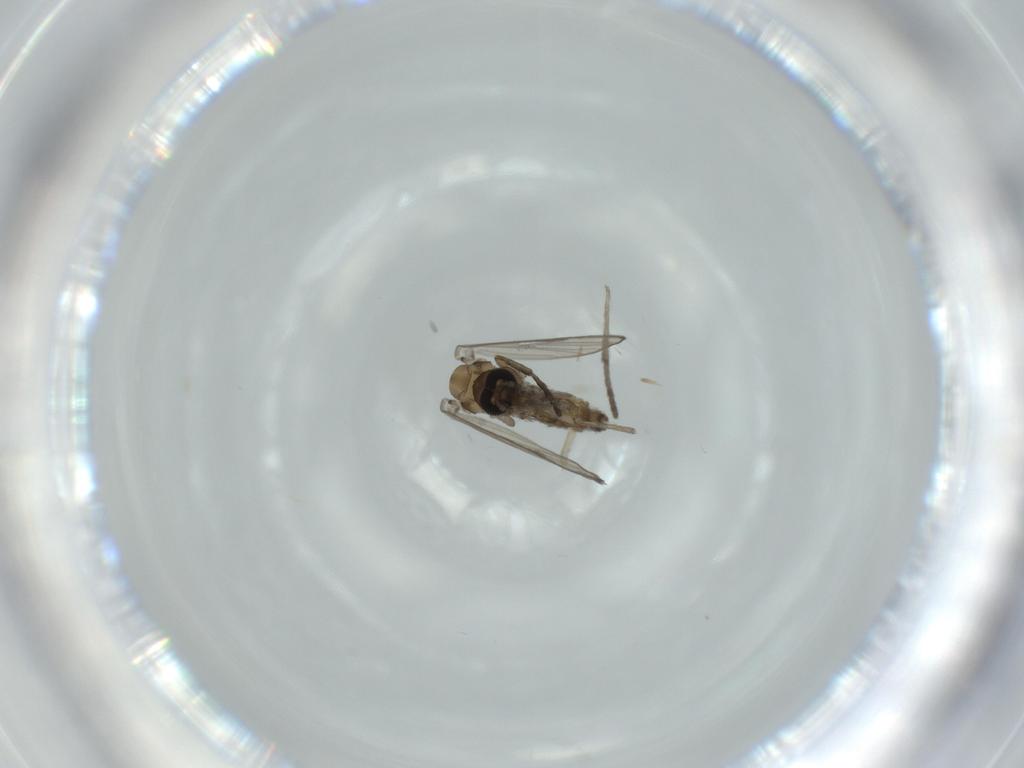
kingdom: Animalia
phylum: Arthropoda
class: Insecta
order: Diptera
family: Psychodidae
